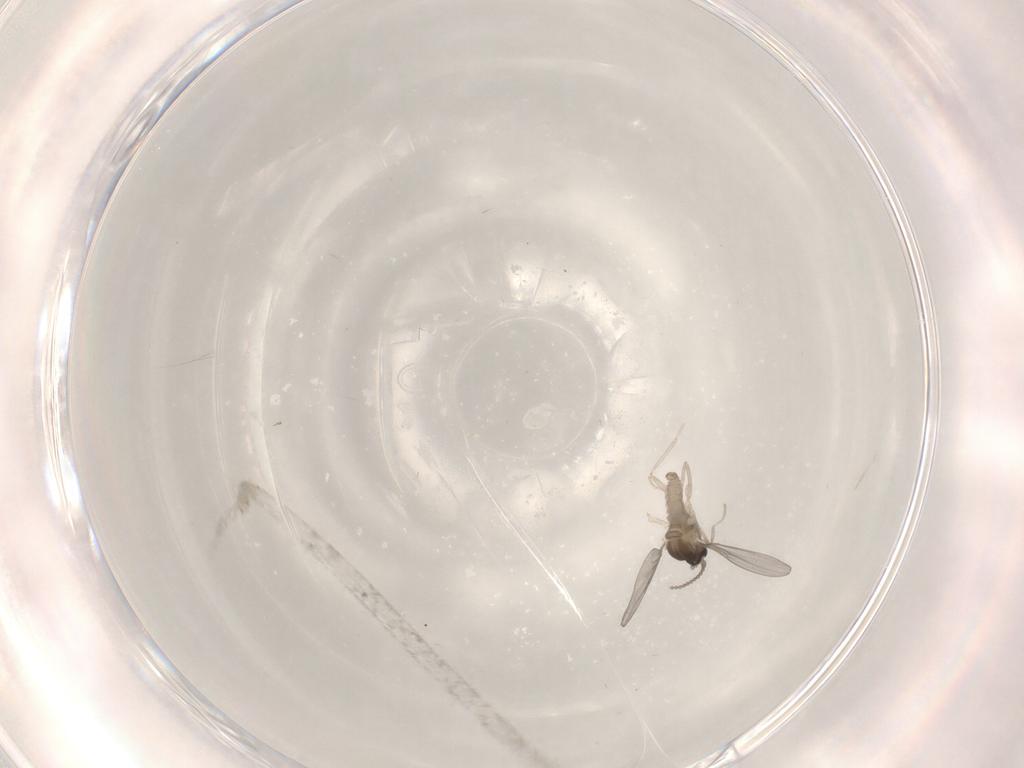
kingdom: Animalia
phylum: Arthropoda
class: Insecta
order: Diptera
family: Cecidomyiidae
